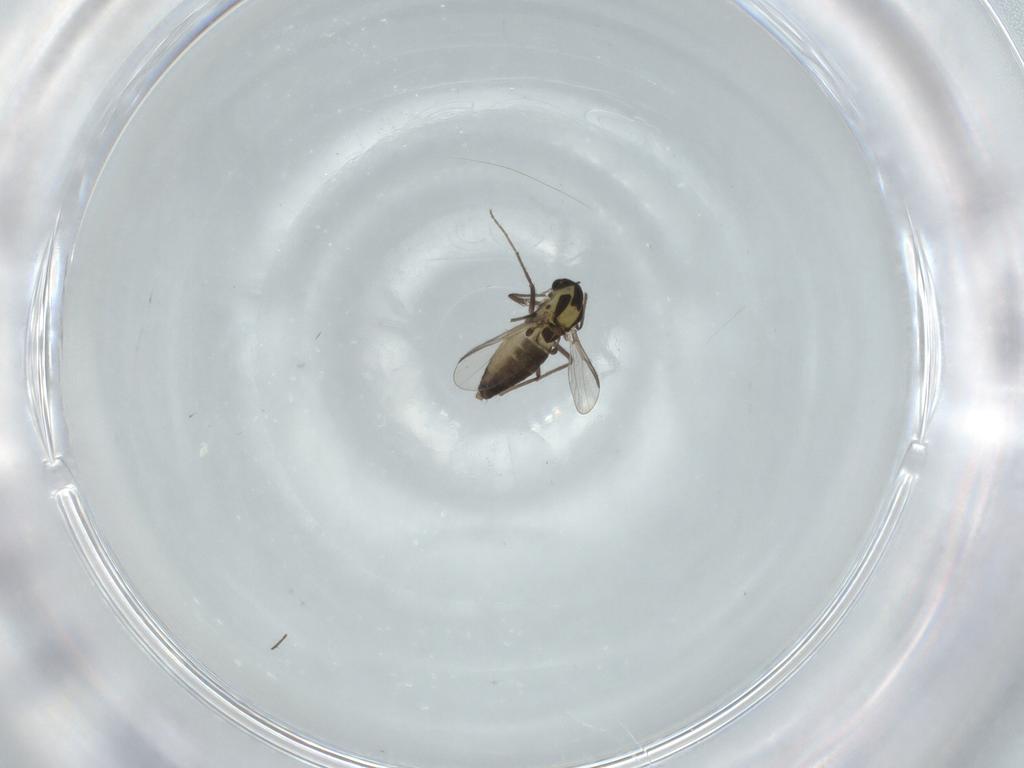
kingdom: Animalia
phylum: Arthropoda
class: Insecta
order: Diptera
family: Chironomidae
